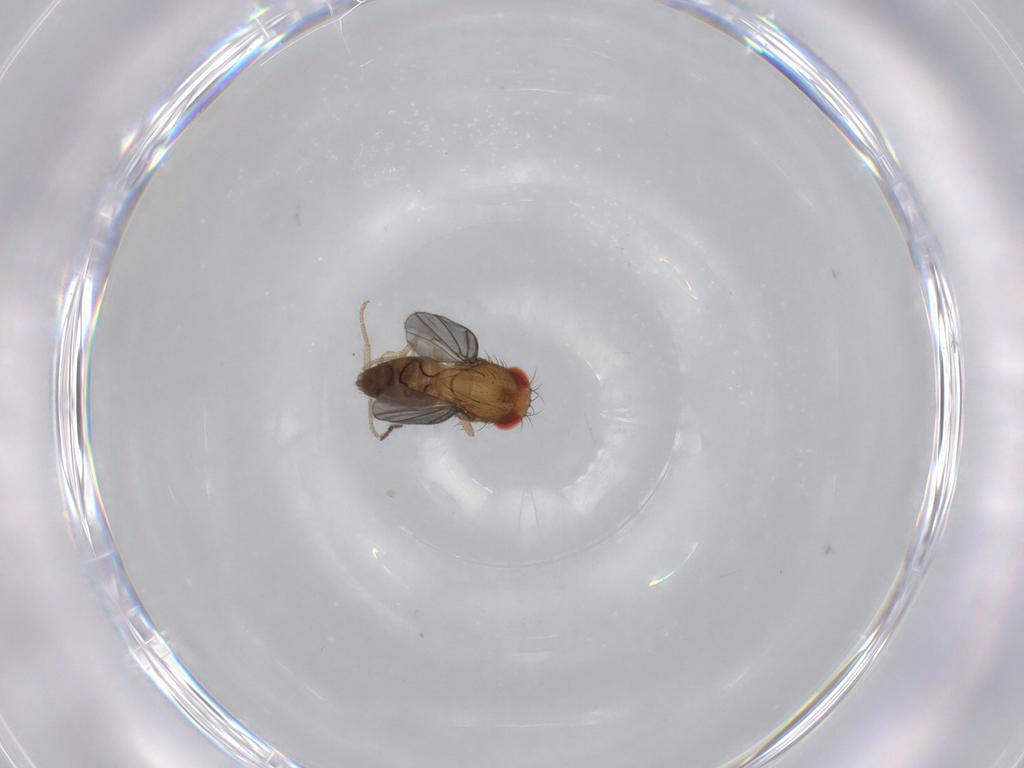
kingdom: Animalia
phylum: Arthropoda
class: Insecta
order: Diptera
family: Drosophilidae
